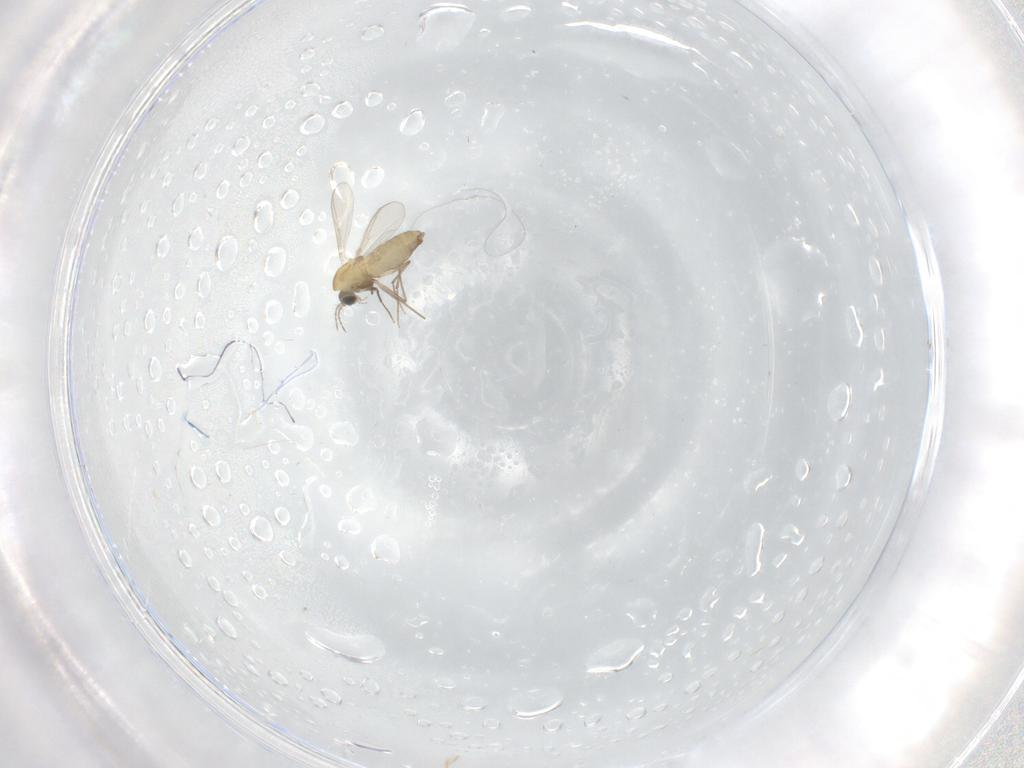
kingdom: Animalia
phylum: Arthropoda
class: Insecta
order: Diptera
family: Chironomidae
